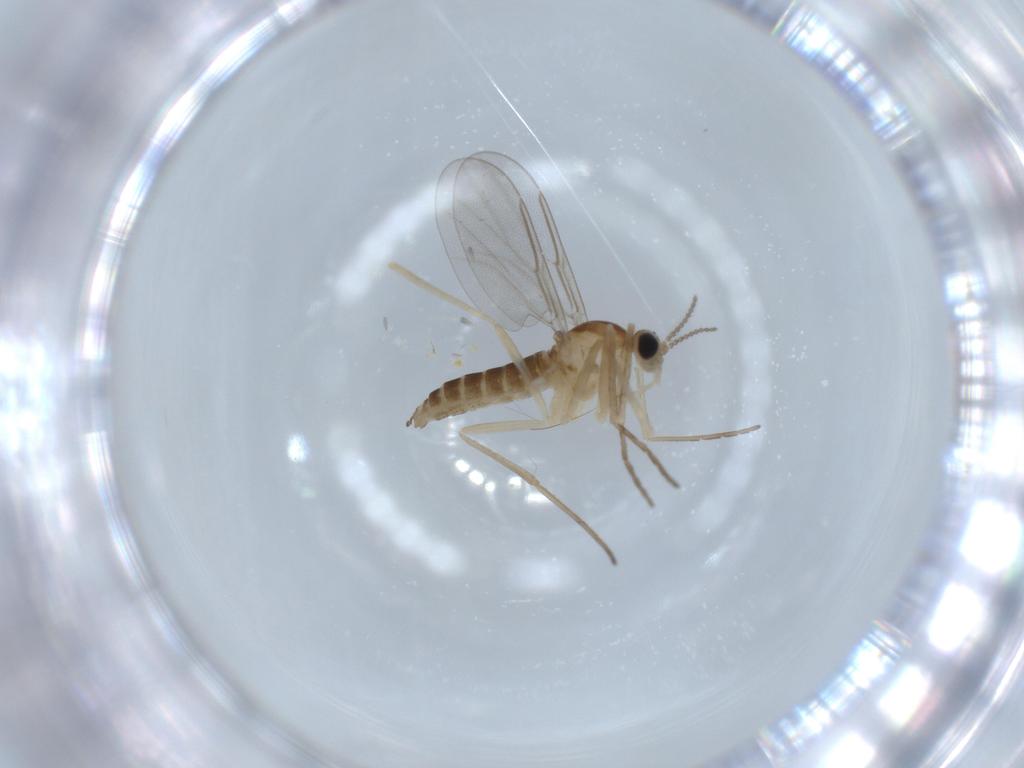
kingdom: Animalia
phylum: Arthropoda
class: Insecta
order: Diptera
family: Cecidomyiidae
